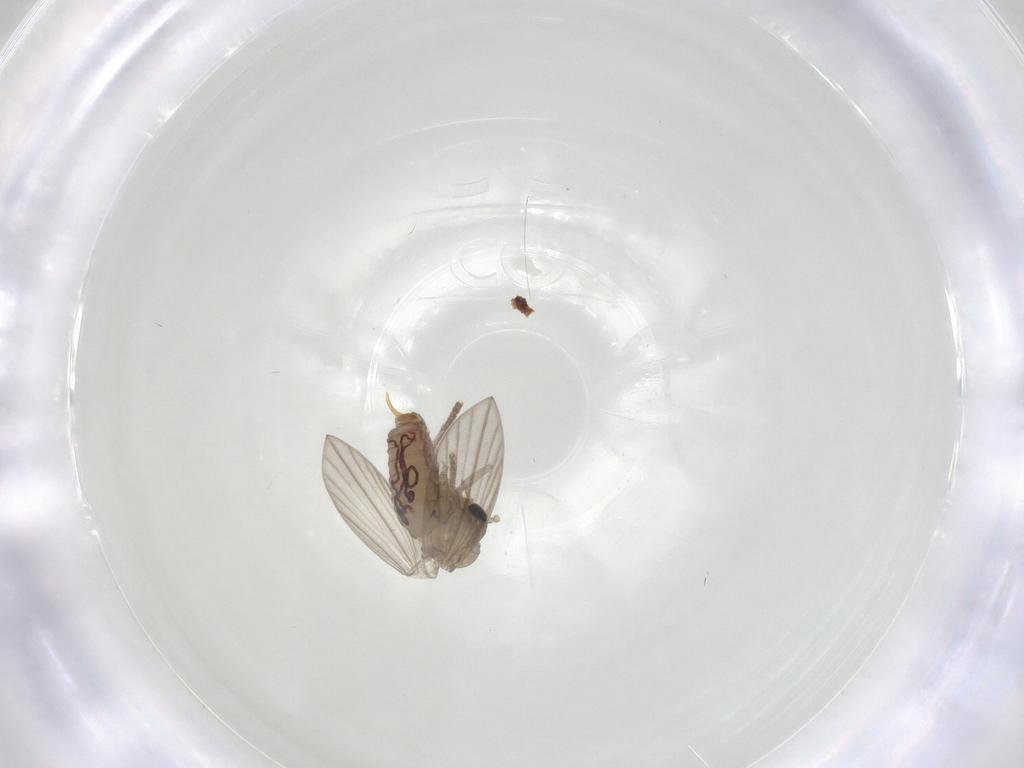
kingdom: Animalia
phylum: Arthropoda
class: Insecta
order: Diptera
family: Psychodidae
